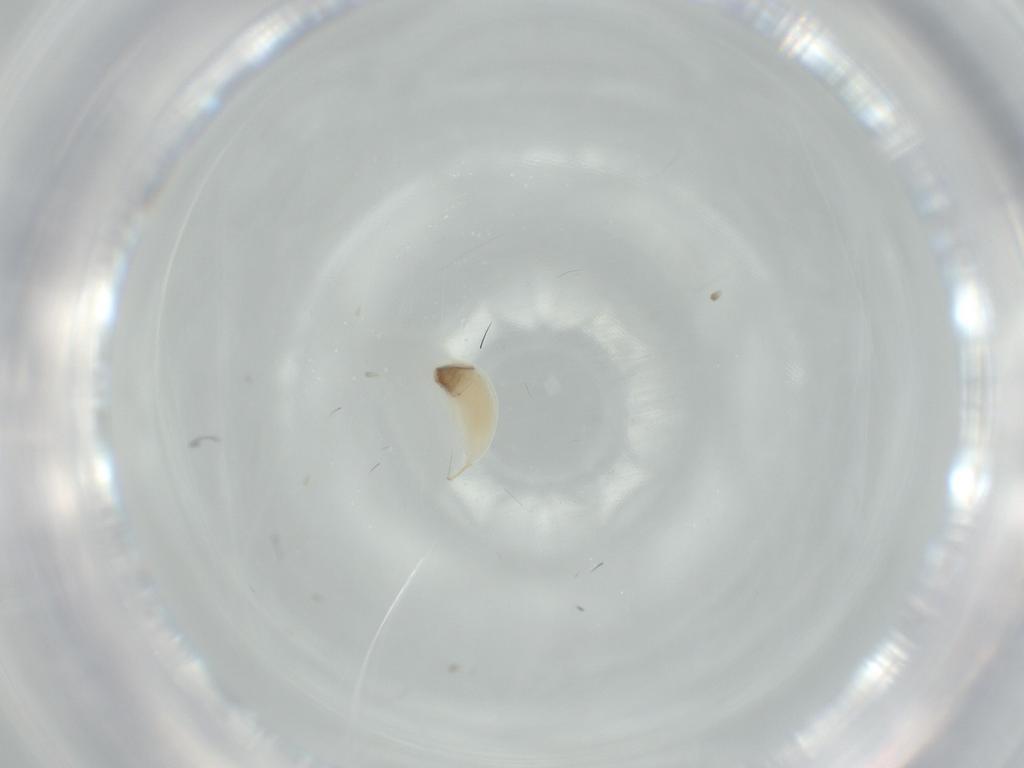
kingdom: Animalia
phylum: Arthropoda
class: Insecta
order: Hymenoptera
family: Ichneumonidae
